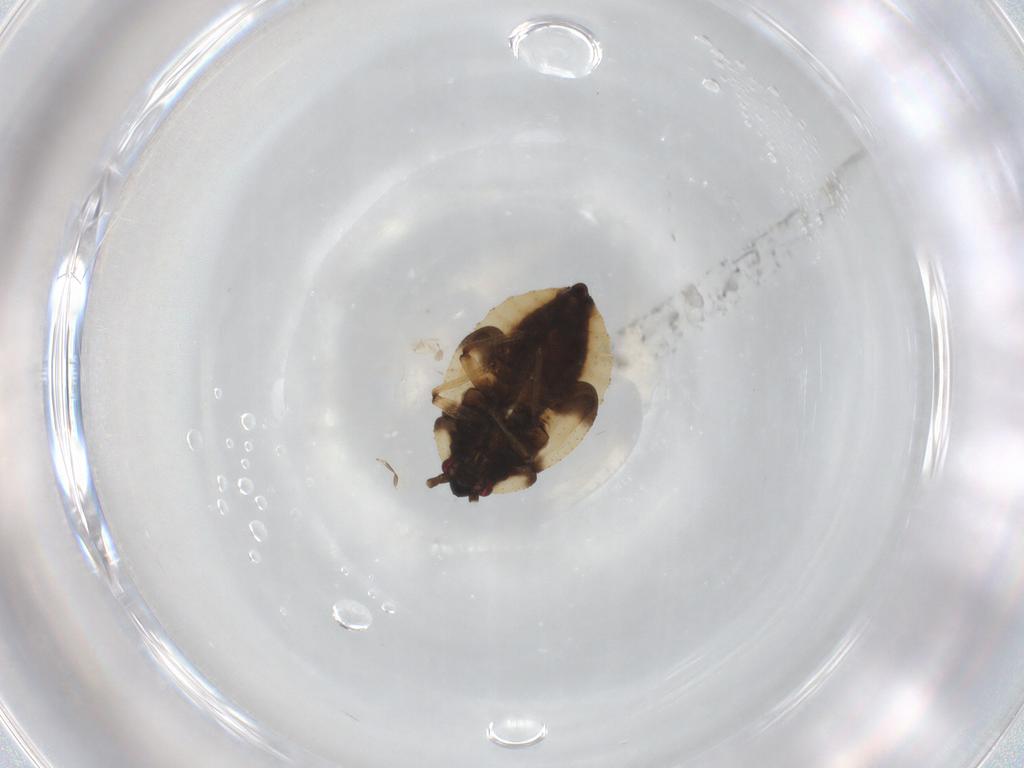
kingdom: Animalia
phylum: Arthropoda
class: Insecta
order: Hemiptera
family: Tingidae
